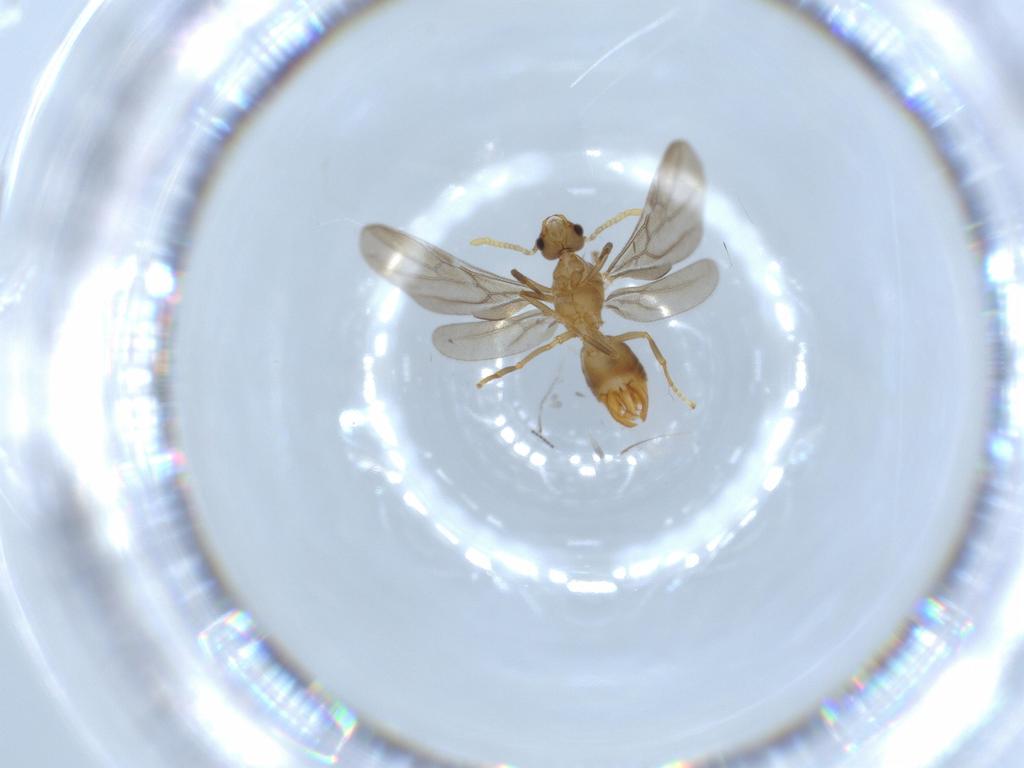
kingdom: Animalia
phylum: Arthropoda
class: Insecta
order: Hymenoptera
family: Formicidae
